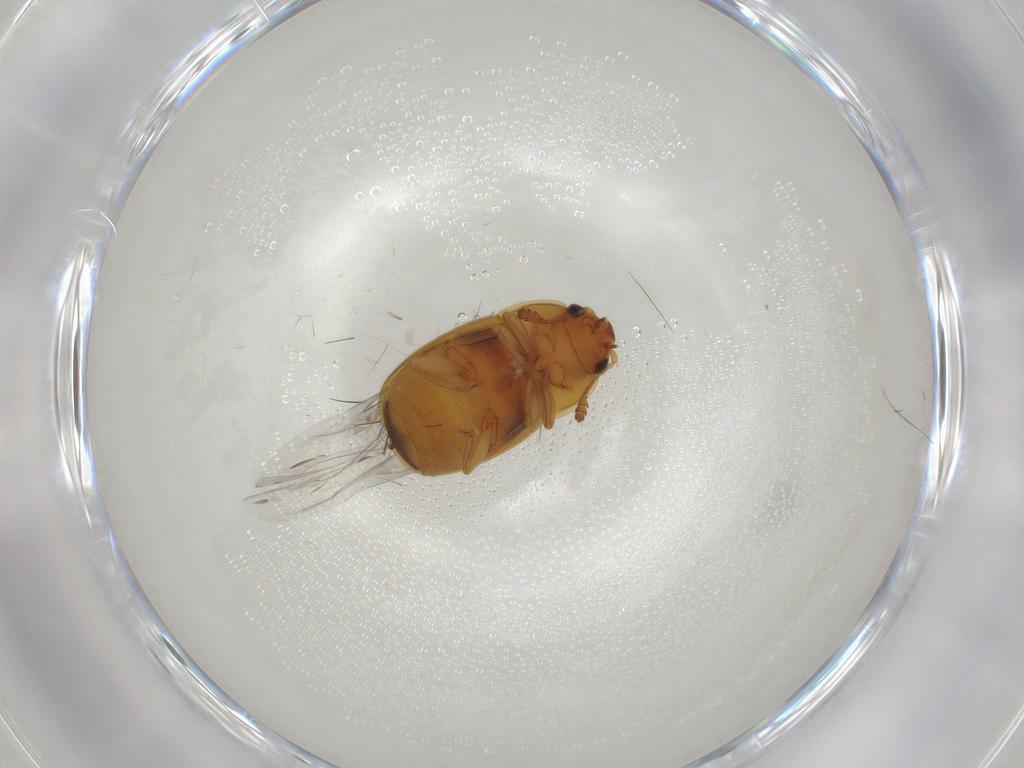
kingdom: Animalia
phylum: Arthropoda
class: Insecta
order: Coleoptera
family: Nitidulidae
